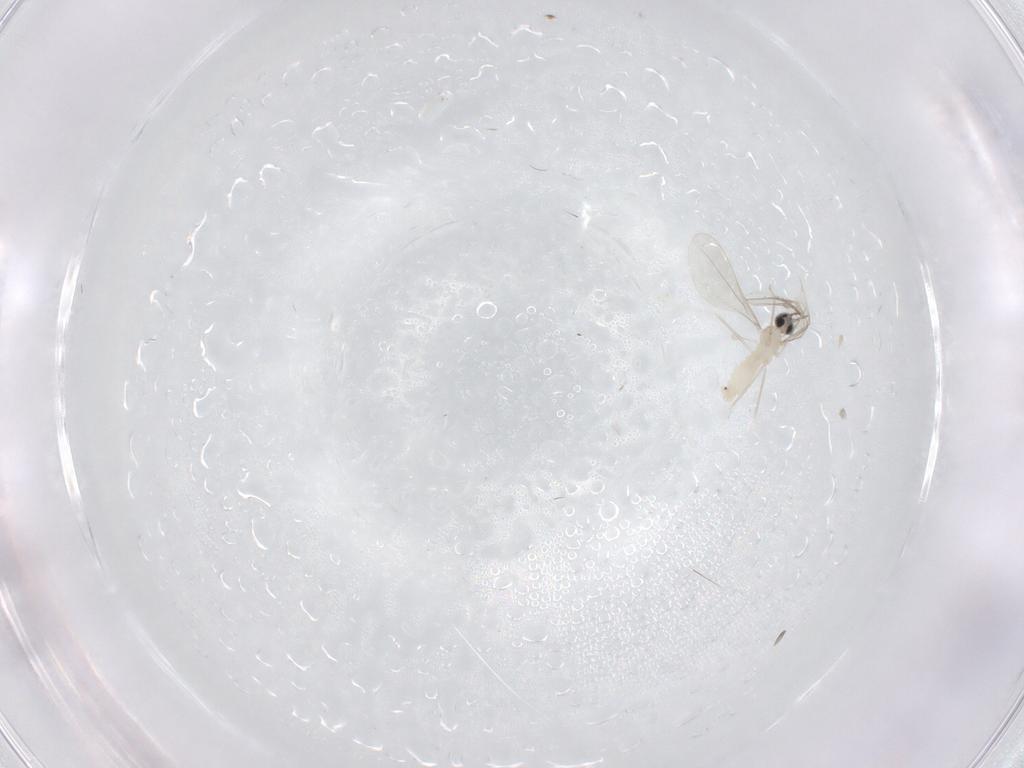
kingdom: Animalia
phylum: Arthropoda
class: Insecta
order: Diptera
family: Cecidomyiidae
